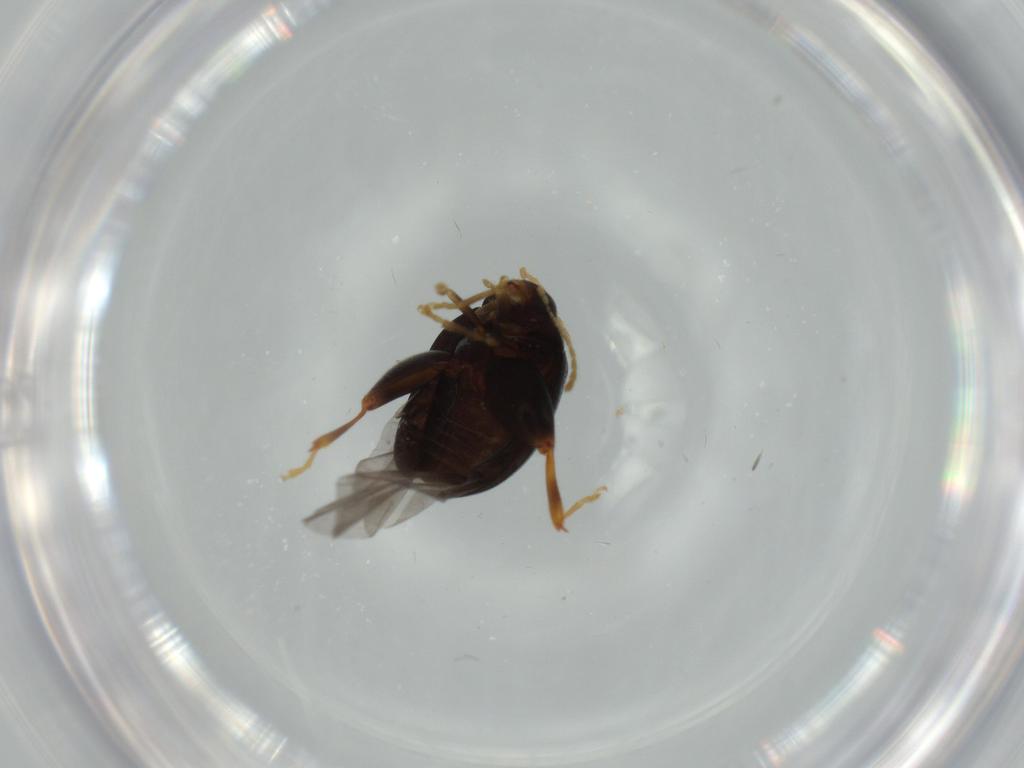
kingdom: Animalia
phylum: Arthropoda
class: Insecta
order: Coleoptera
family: Chrysomelidae
